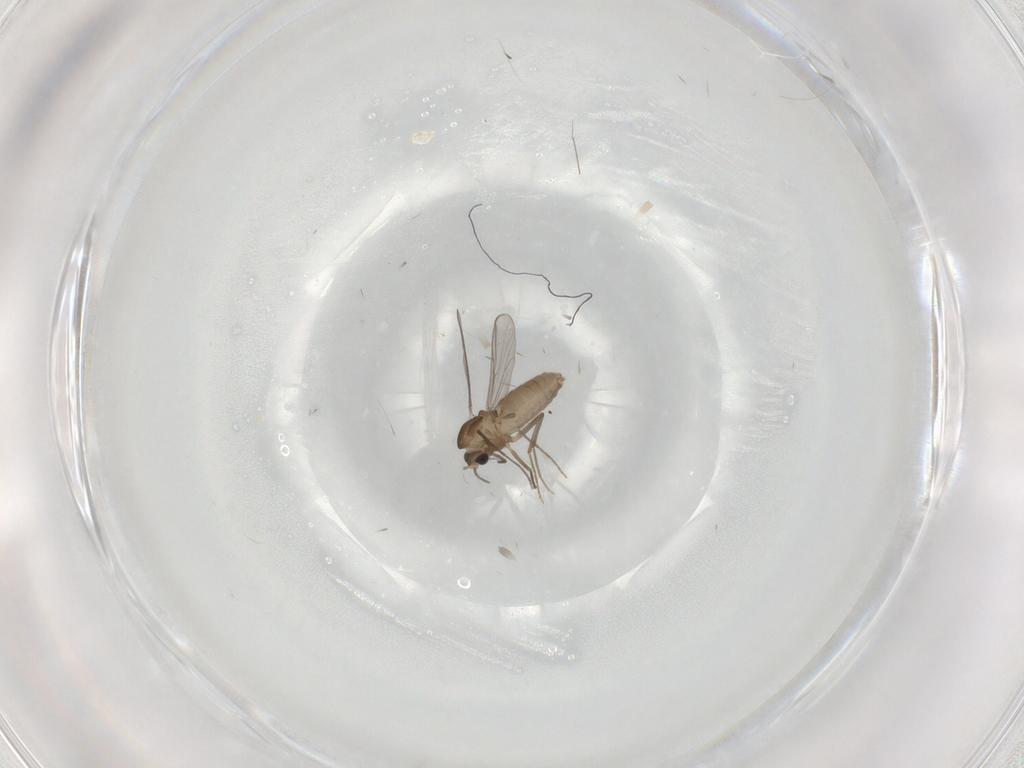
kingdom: Animalia
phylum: Arthropoda
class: Insecta
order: Diptera
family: Chironomidae
